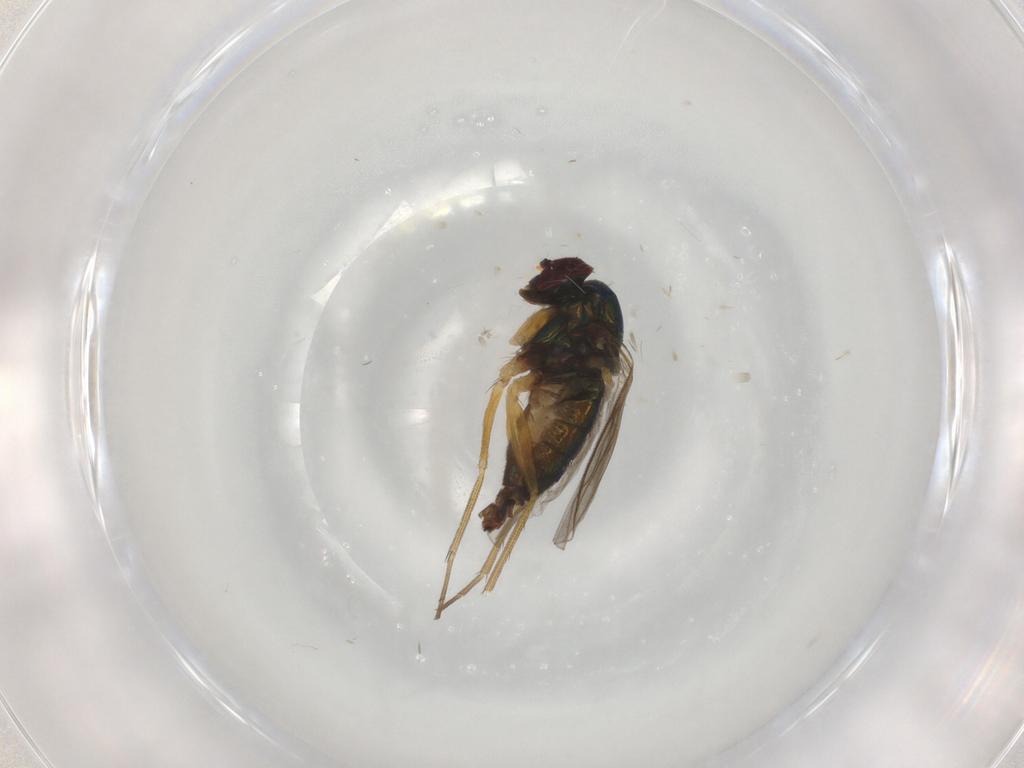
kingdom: Animalia
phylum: Arthropoda
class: Insecta
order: Diptera
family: Dolichopodidae
